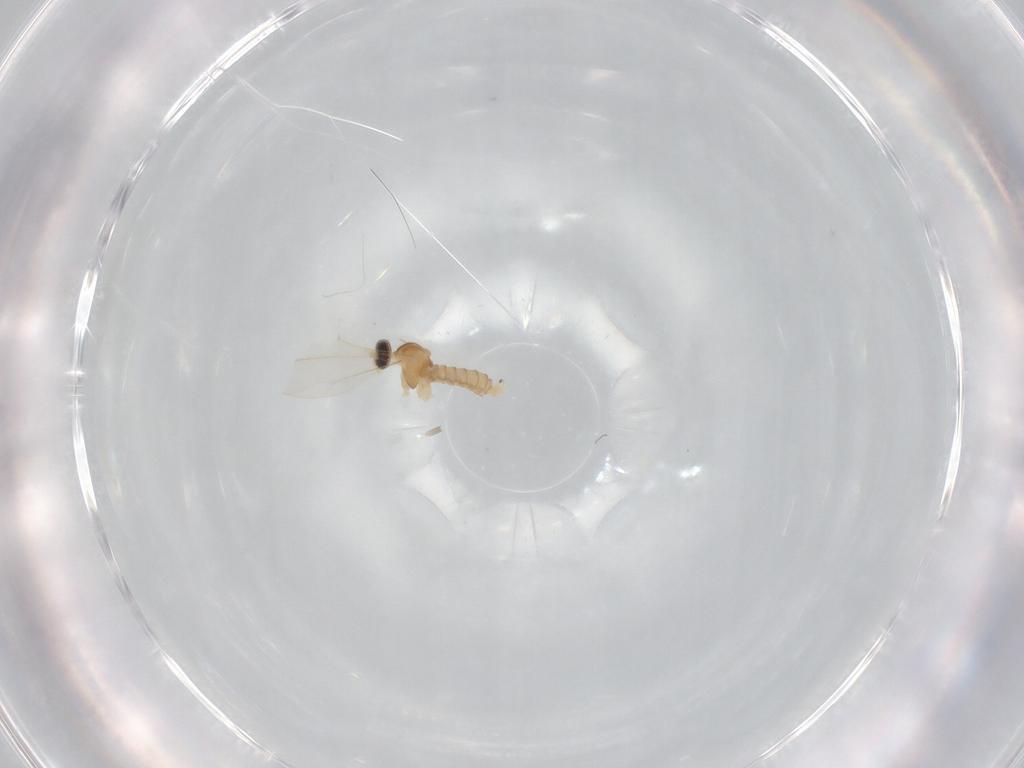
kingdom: Animalia
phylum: Arthropoda
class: Insecta
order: Diptera
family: Cecidomyiidae
